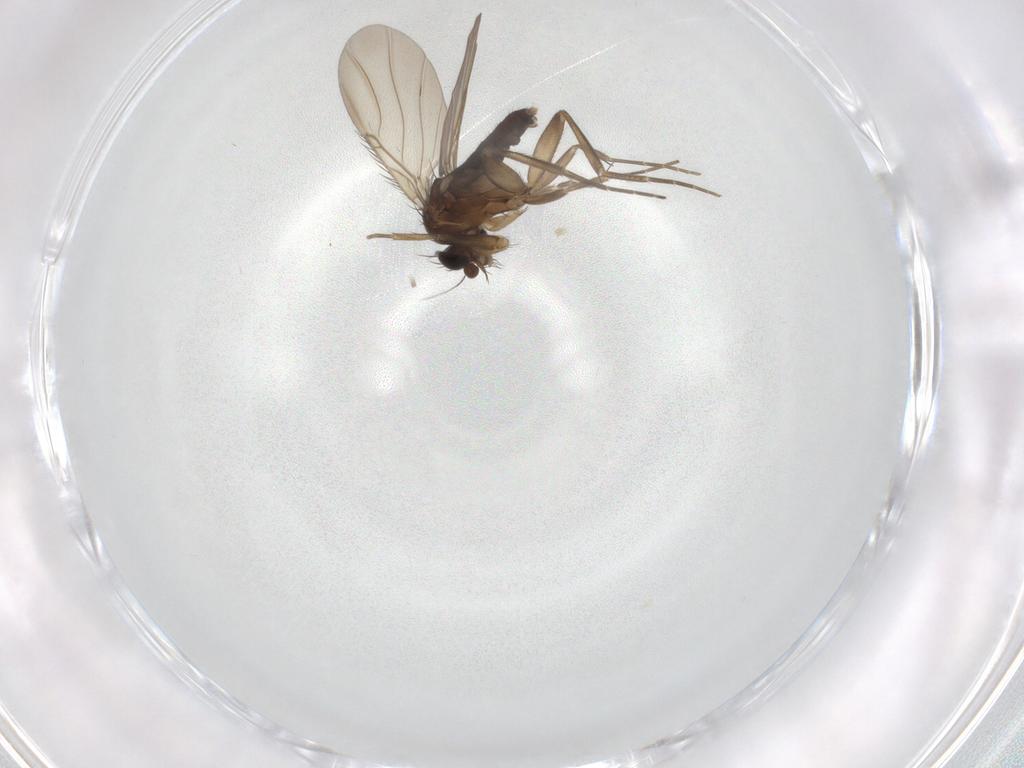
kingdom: Animalia
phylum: Arthropoda
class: Insecta
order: Diptera
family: Phoridae
